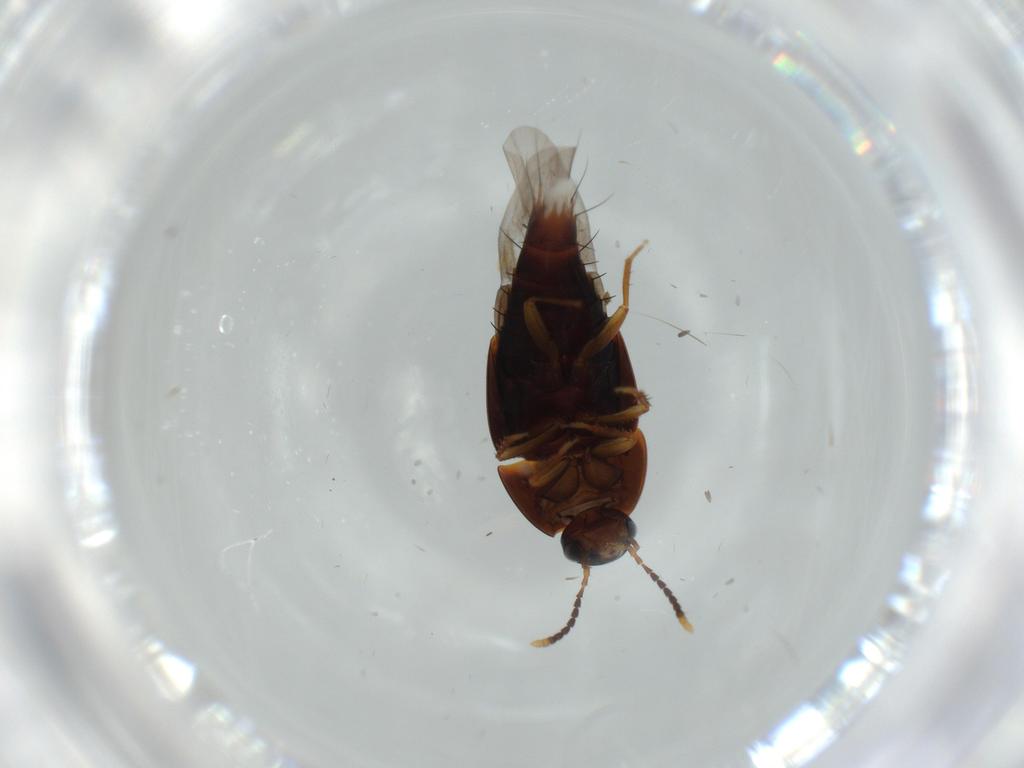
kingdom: Animalia
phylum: Arthropoda
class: Insecta
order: Coleoptera
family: Staphylinidae
